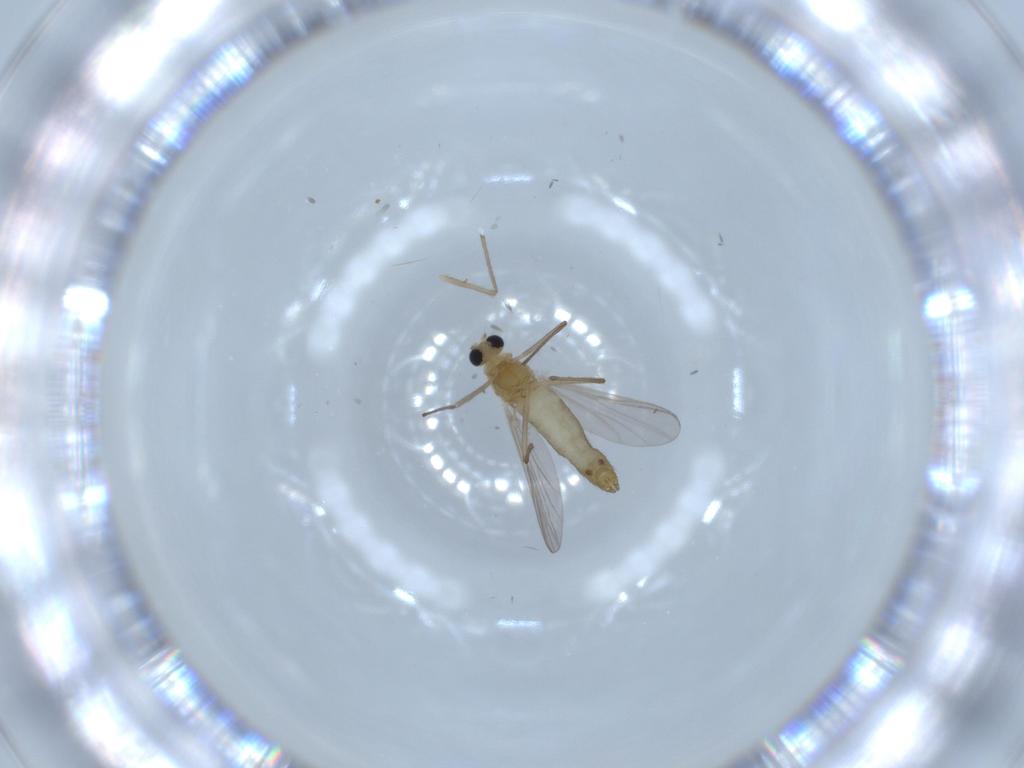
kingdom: Animalia
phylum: Arthropoda
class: Insecta
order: Diptera
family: Chironomidae
